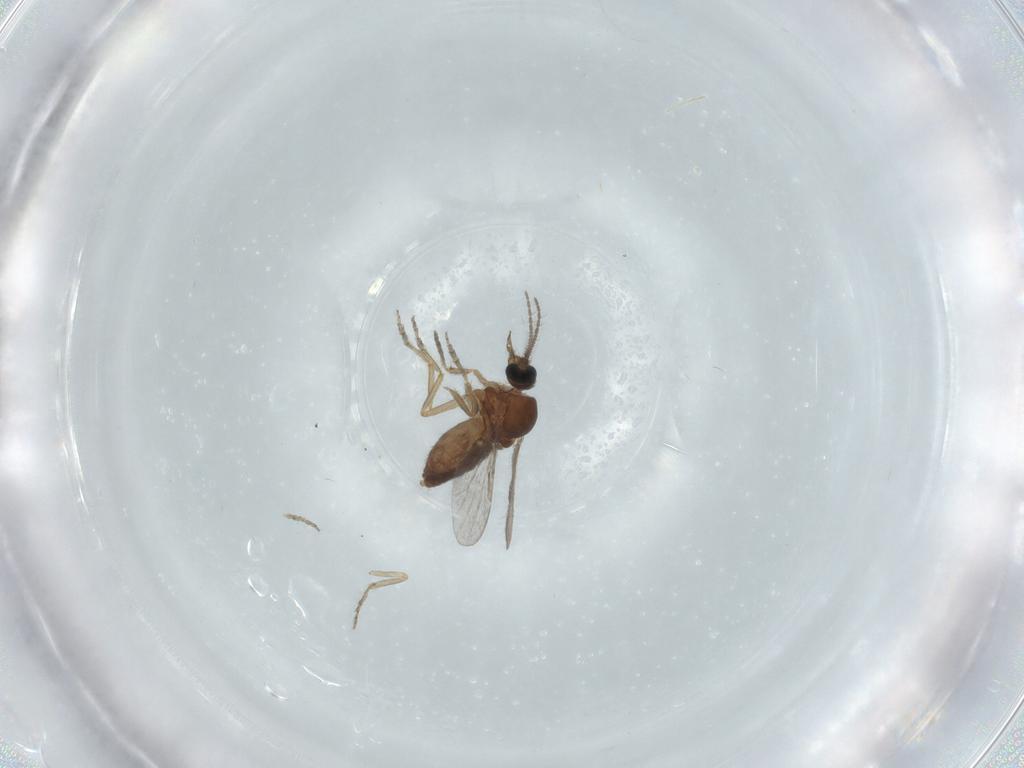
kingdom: Animalia
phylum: Arthropoda
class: Insecta
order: Diptera
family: Ceratopogonidae
